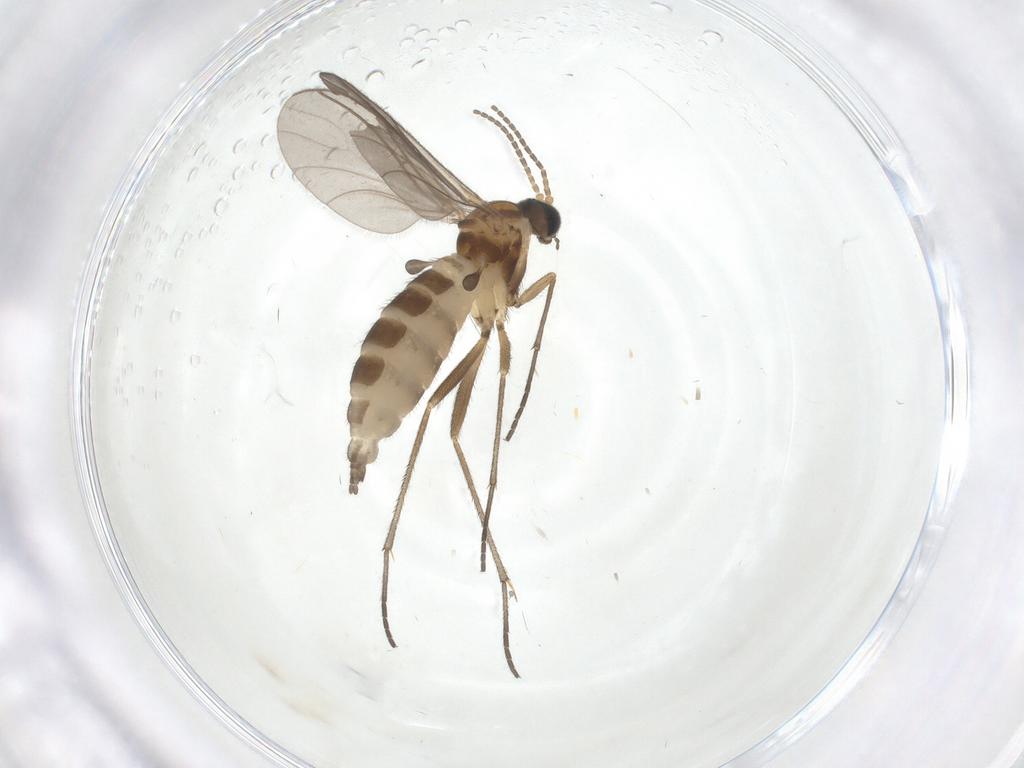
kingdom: Animalia
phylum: Arthropoda
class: Insecta
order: Diptera
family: Sciaridae
